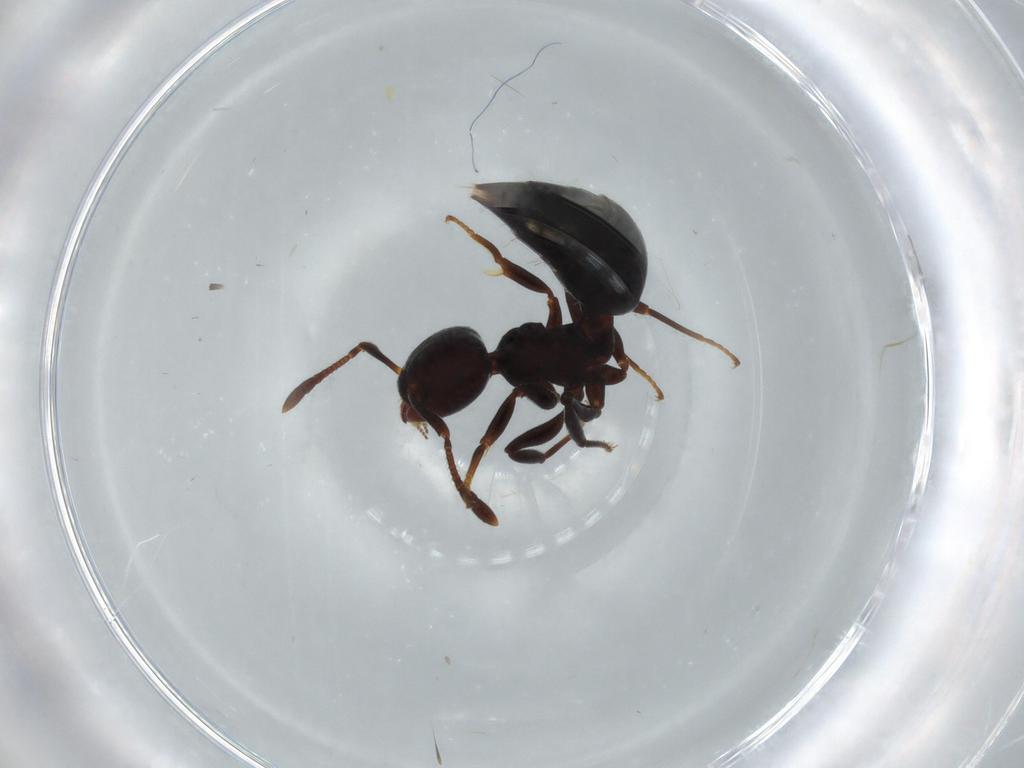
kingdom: Animalia
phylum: Arthropoda
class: Insecta
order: Hymenoptera
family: Formicidae
